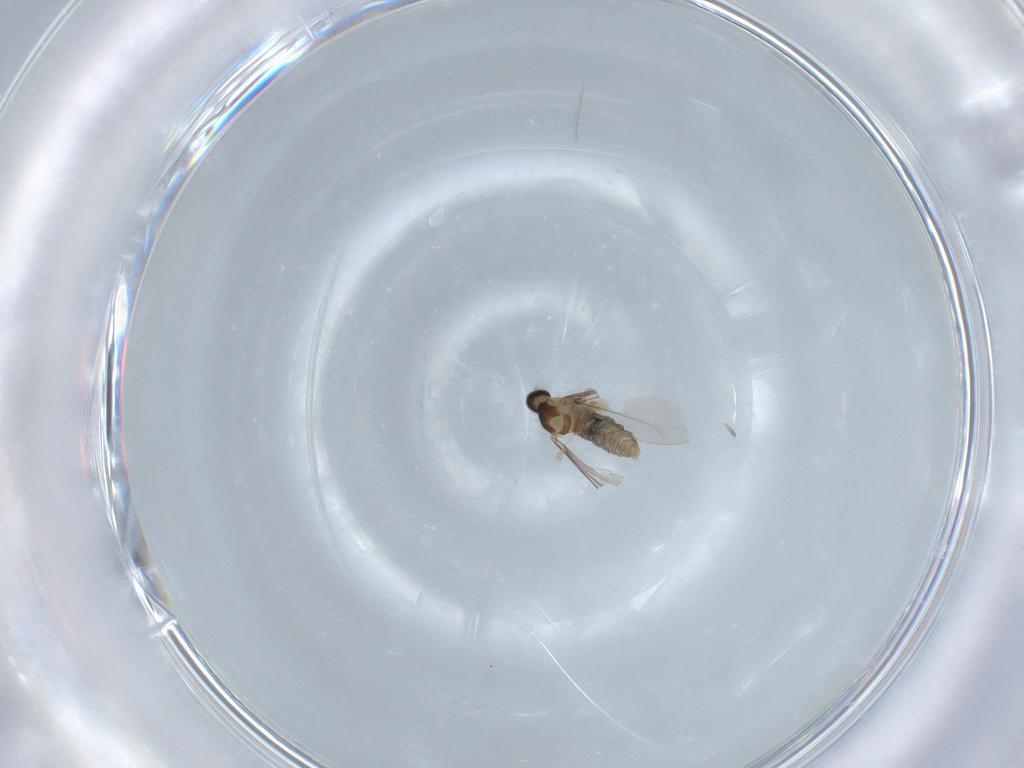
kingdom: Animalia
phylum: Arthropoda
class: Insecta
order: Diptera
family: Cecidomyiidae
